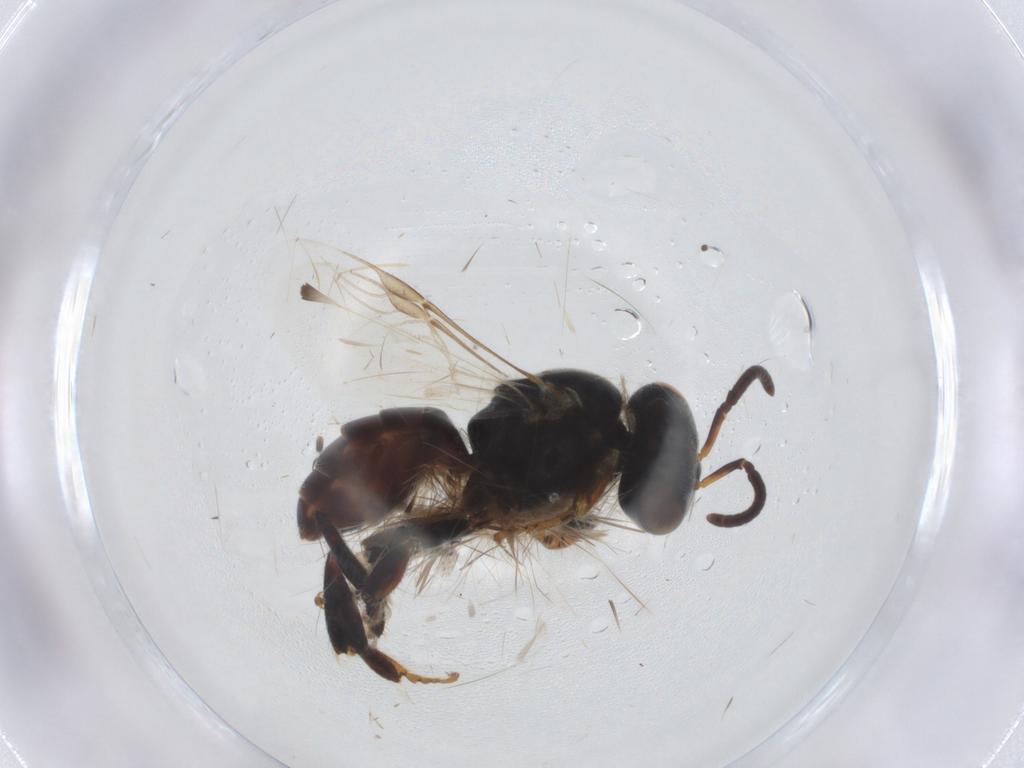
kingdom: Animalia
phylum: Arthropoda
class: Insecta
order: Hymenoptera
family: Apidae
